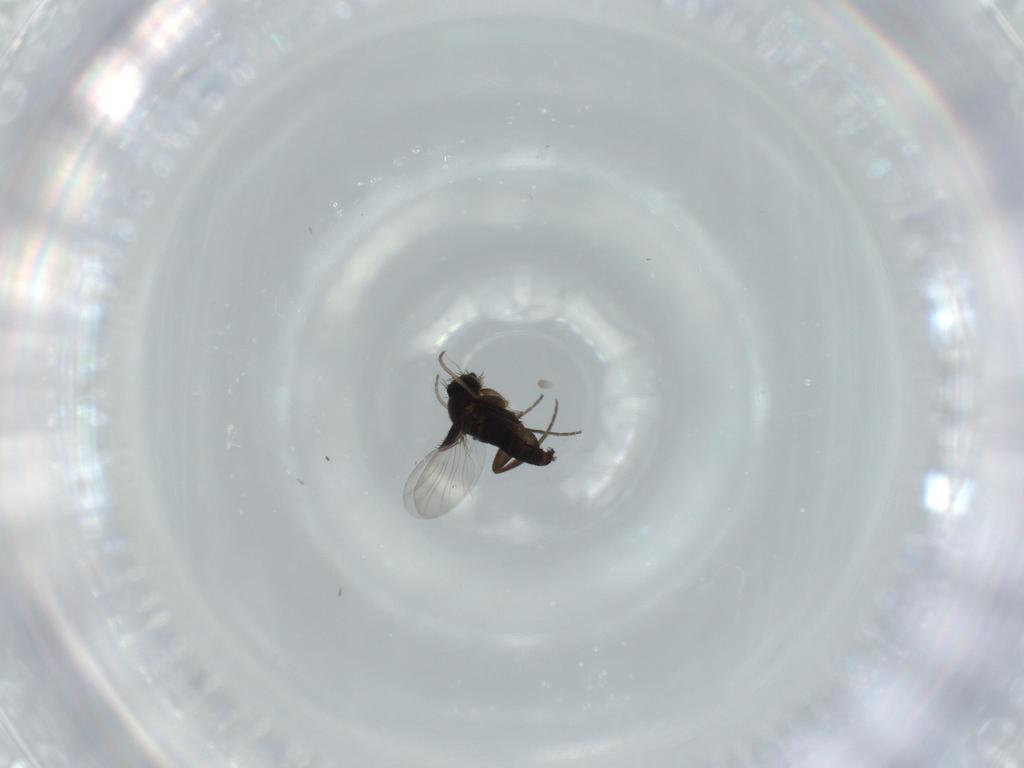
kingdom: Animalia
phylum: Arthropoda
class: Insecta
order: Diptera
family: Phoridae
